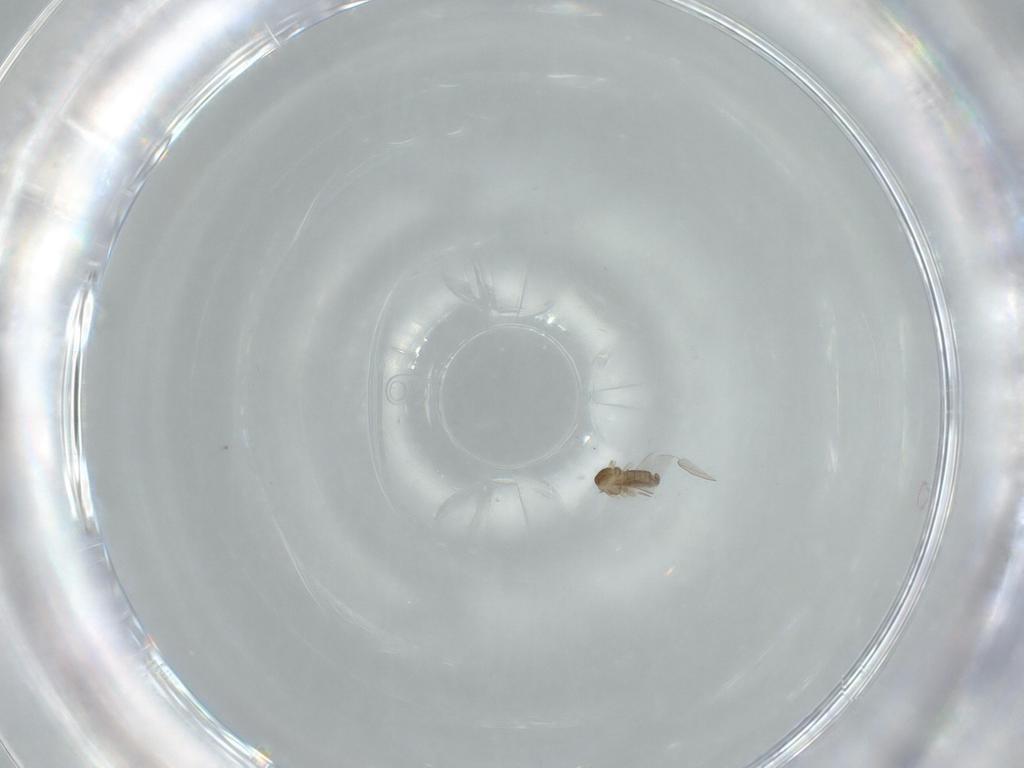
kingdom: Animalia
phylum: Arthropoda
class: Insecta
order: Diptera
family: Cecidomyiidae
